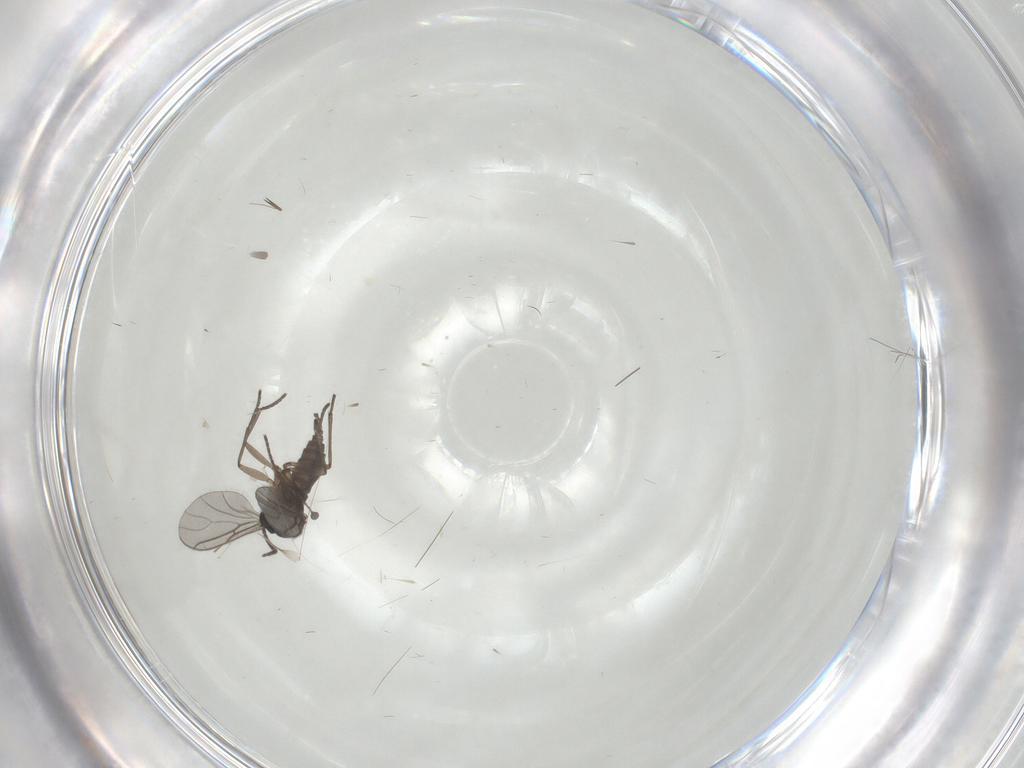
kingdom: Animalia
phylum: Arthropoda
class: Insecta
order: Diptera
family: Sciaridae
